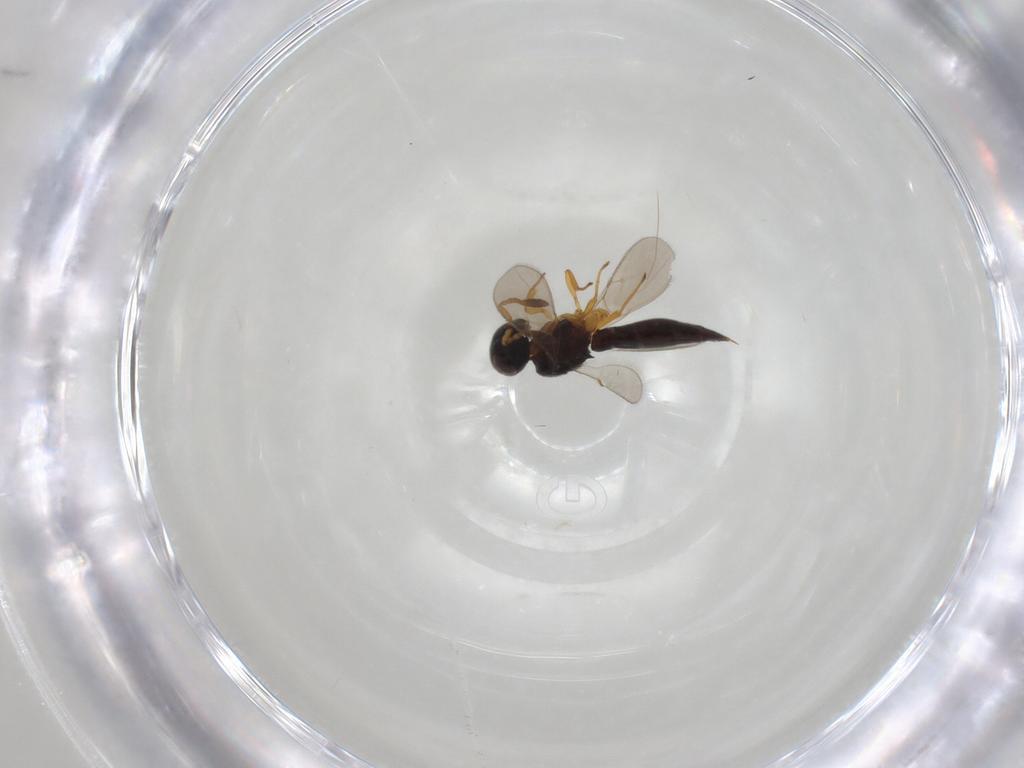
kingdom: Animalia
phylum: Arthropoda
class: Insecta
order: Hymenoptera
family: Scelionidae
